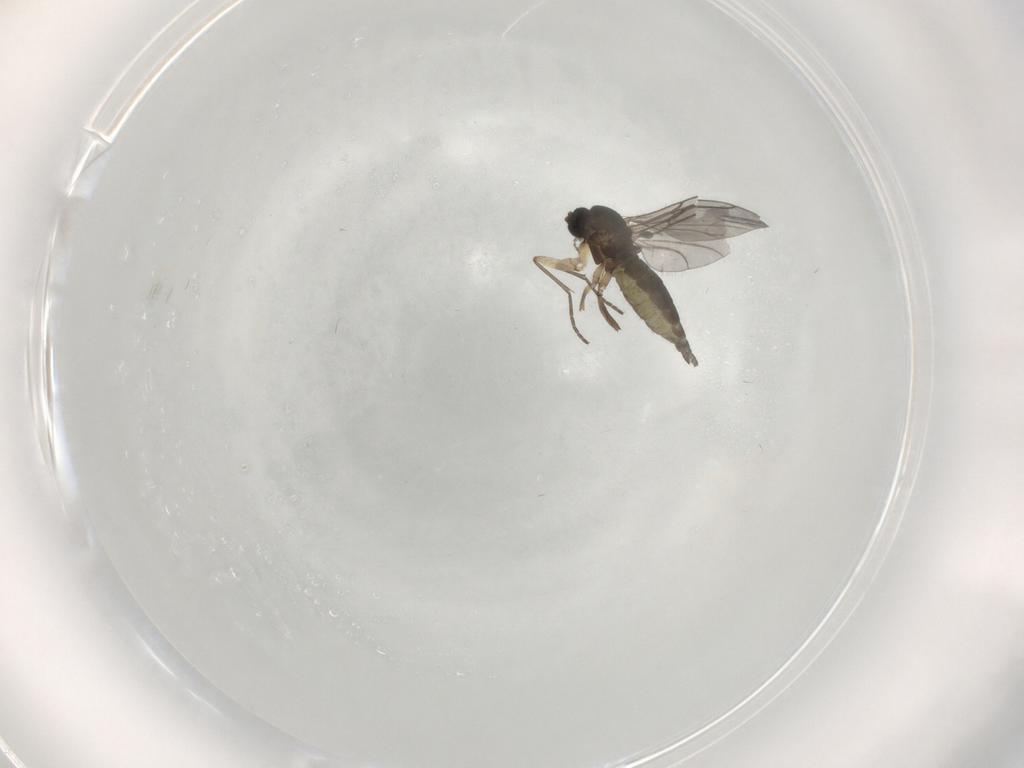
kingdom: Animalia
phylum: Arthropoda
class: Insecta
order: Diptera
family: Sciaridae
